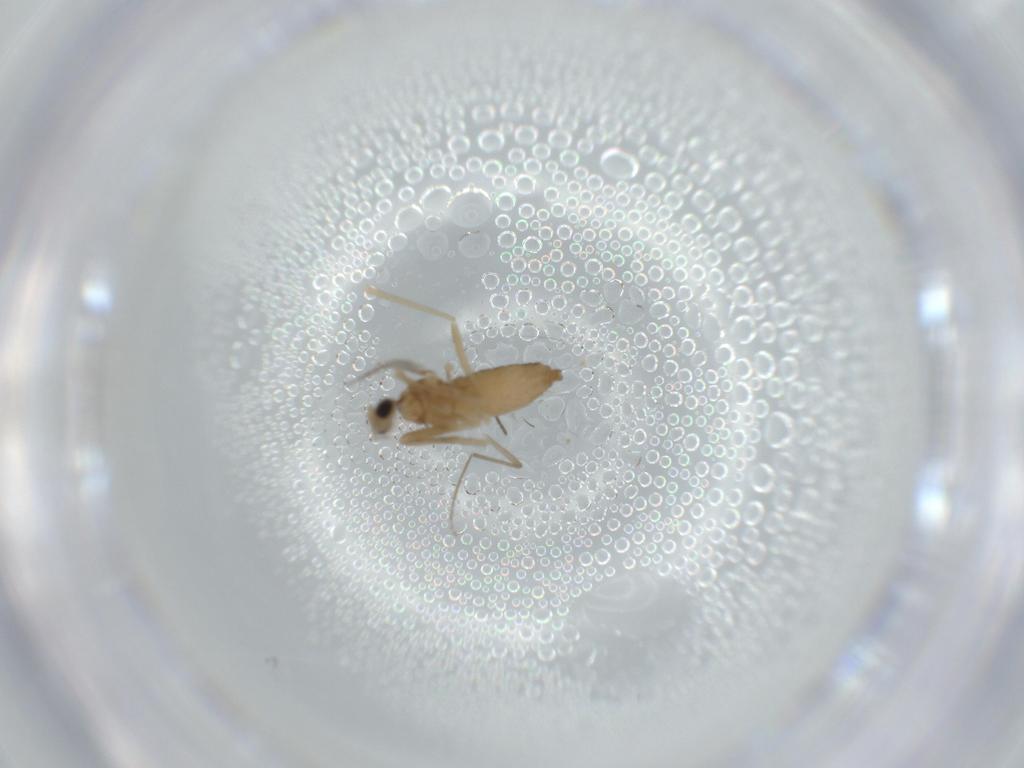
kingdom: Animalia
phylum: Arthropoda
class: Insecta
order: Diptera
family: Cecidomyiidae
